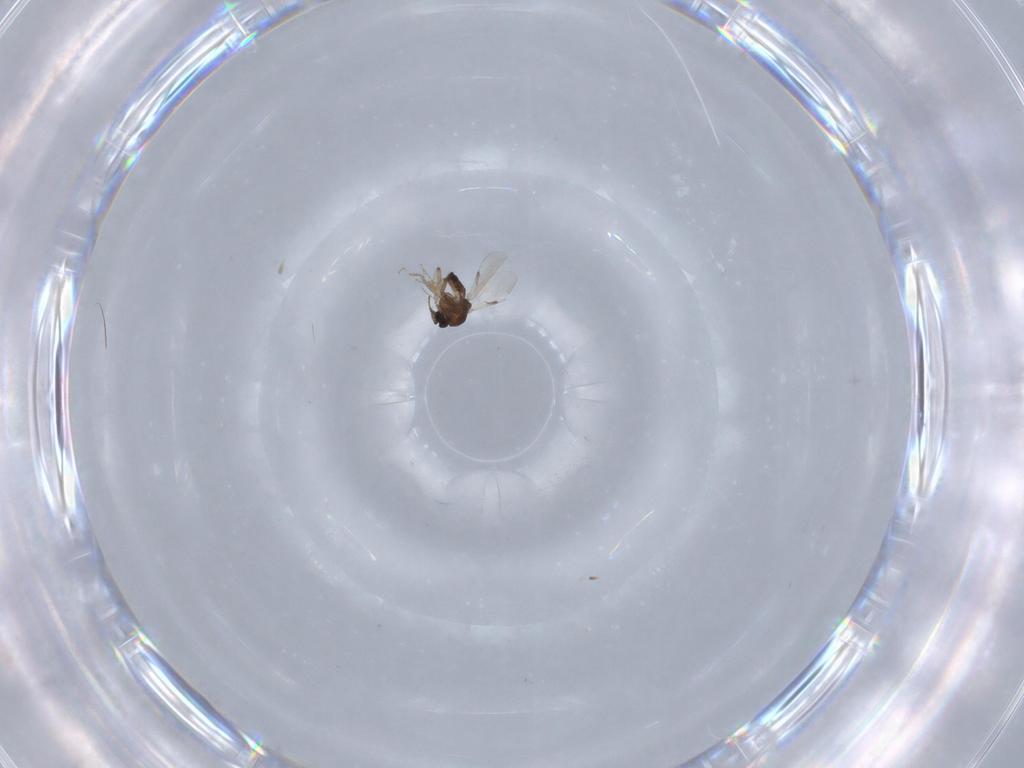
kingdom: Animalia
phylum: Arthropoda
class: Insecta
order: Diptera
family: Ceratopogonidae
